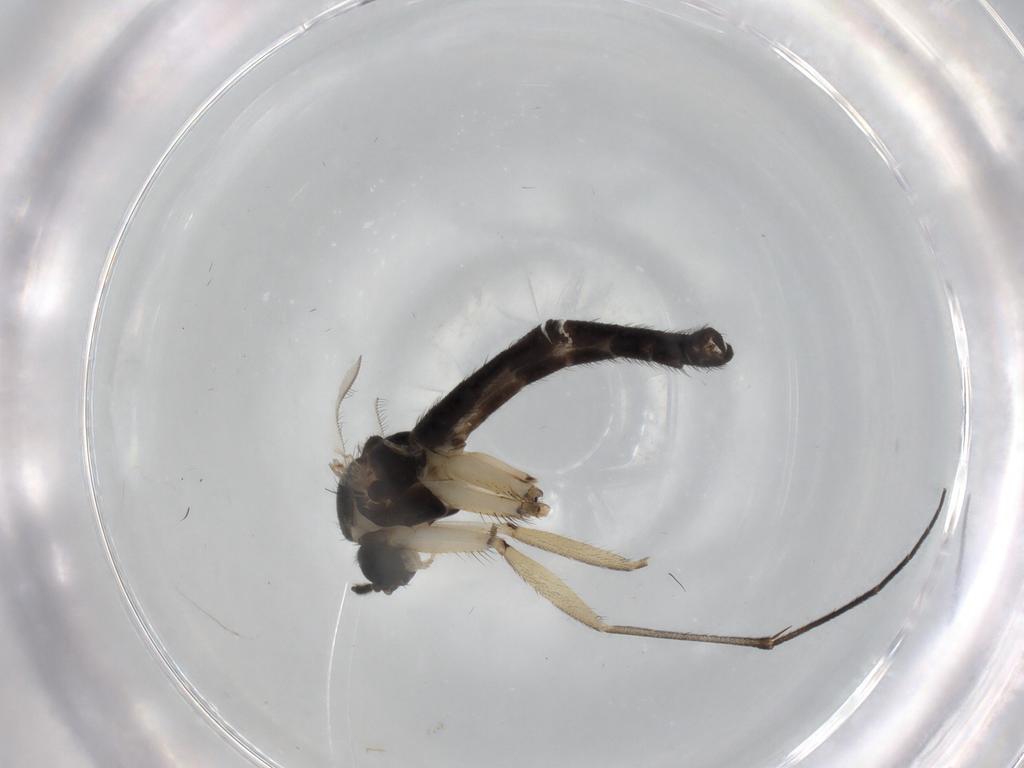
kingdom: Animalia
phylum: Arthropoda
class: Insecta
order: Diptera
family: Sciaridae
